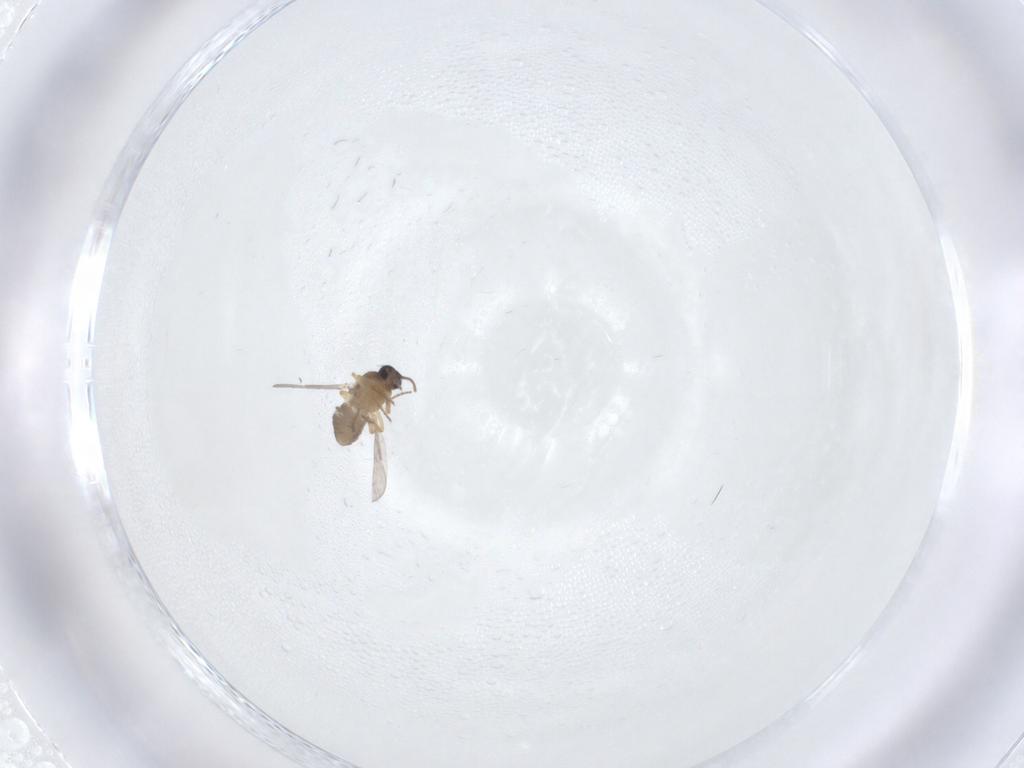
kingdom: Animalia
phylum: Arthropoda
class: Insecta
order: Diptera
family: Ceratopogonidae
